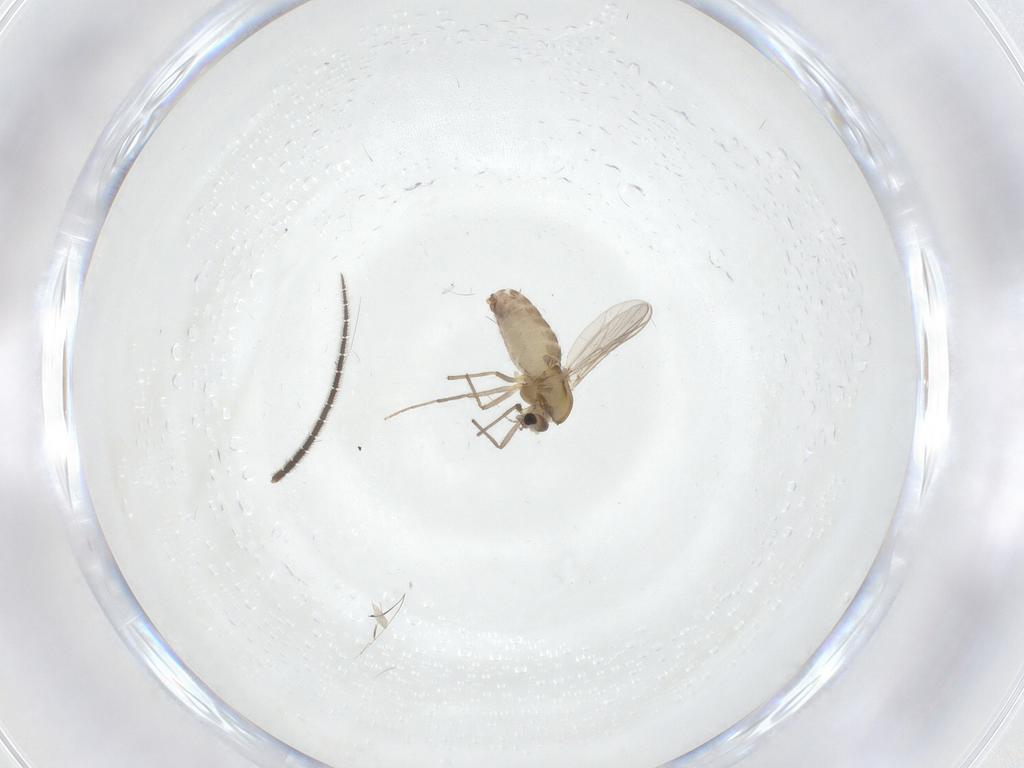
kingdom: Animalia
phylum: Arthropoda
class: Insecta
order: Diptera
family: Sciaridae
